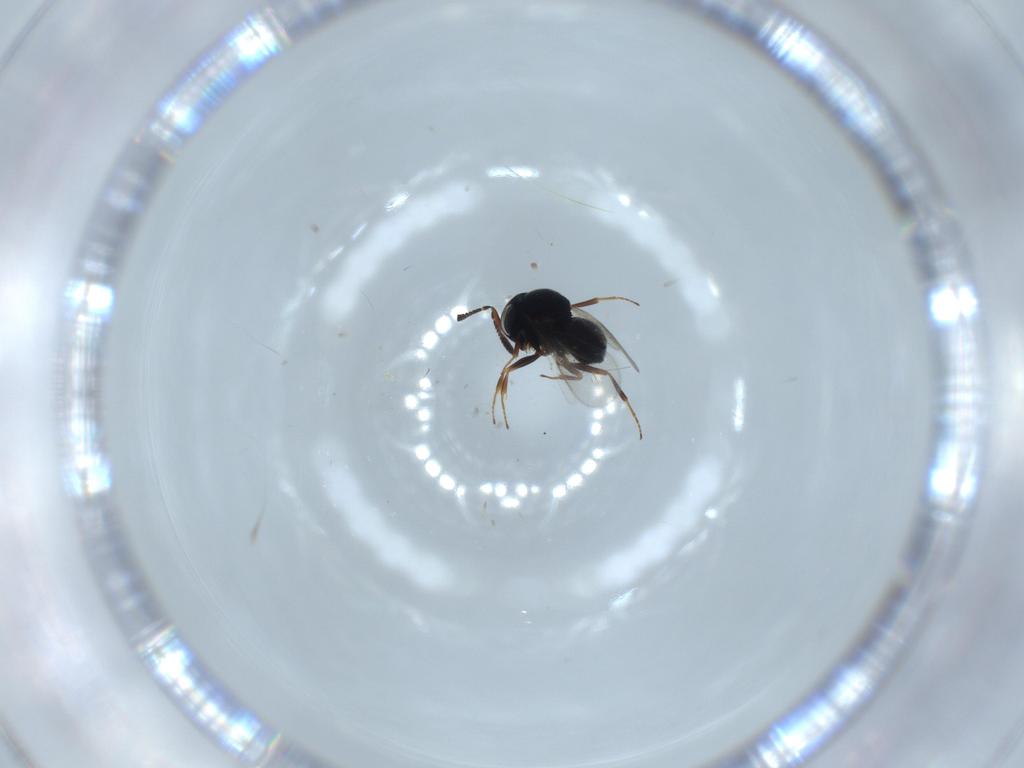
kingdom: Animalia
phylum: Arthropoda
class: Insecta
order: Hymenoptera
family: Scelionidae
